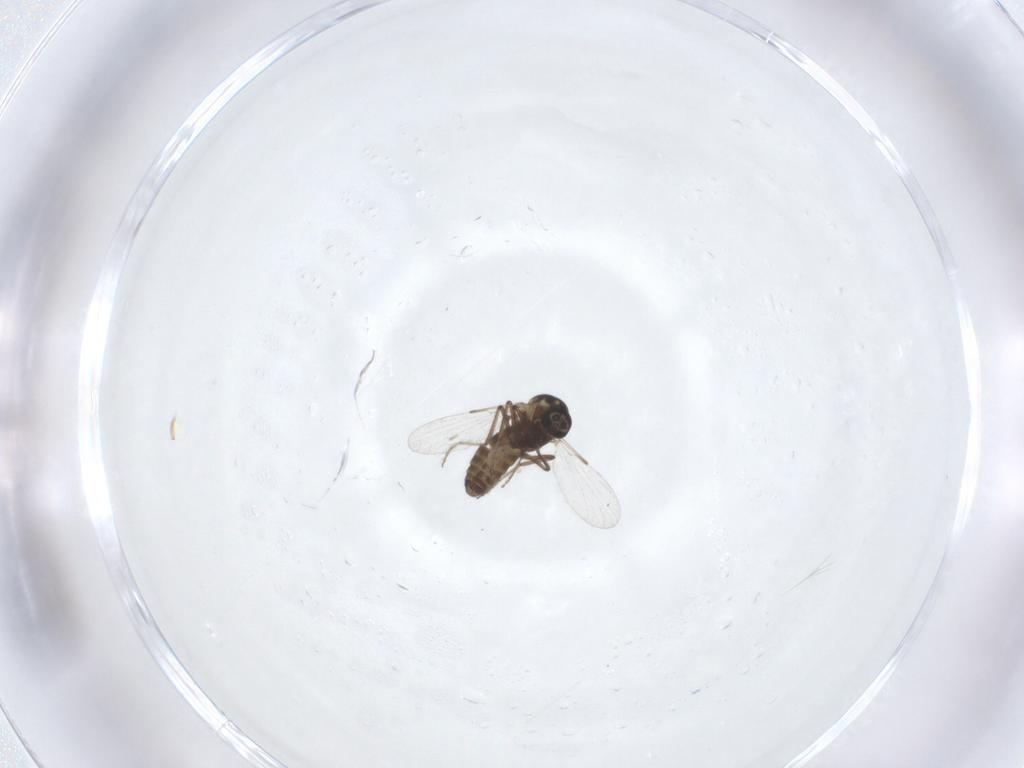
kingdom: Animalia
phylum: Arthropoda
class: Insecta
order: Diptera
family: Ceratopogonidae
